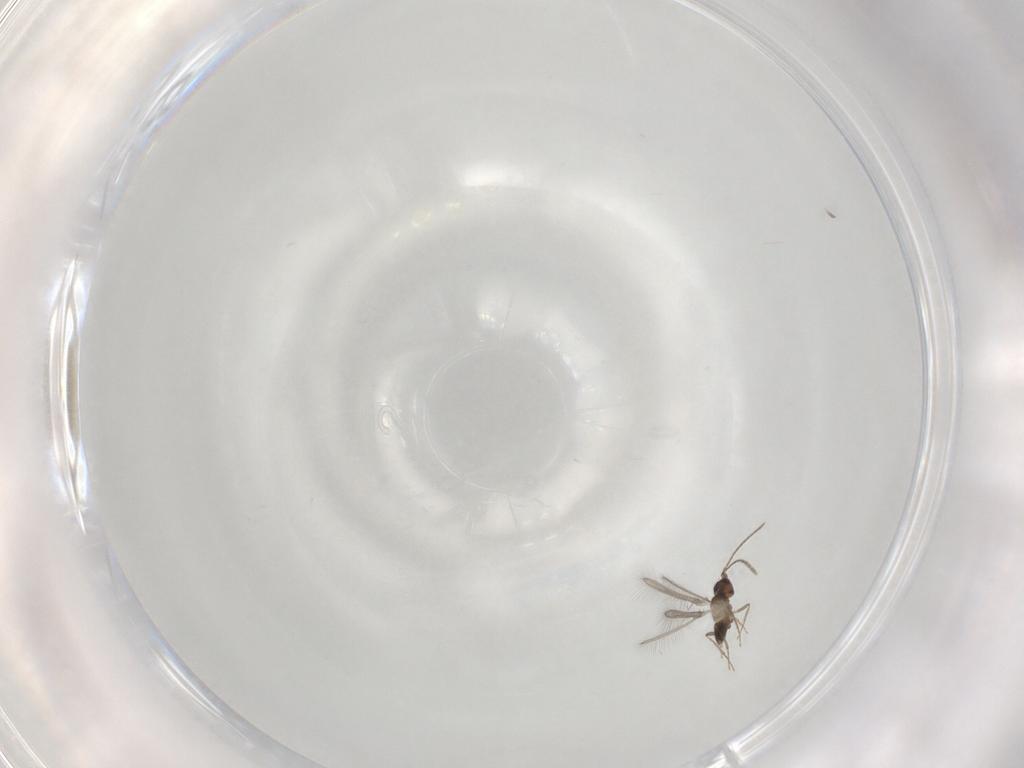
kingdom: Animalia
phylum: Arthropoda
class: Insecta
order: Hymenoptera
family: Mymaridae
